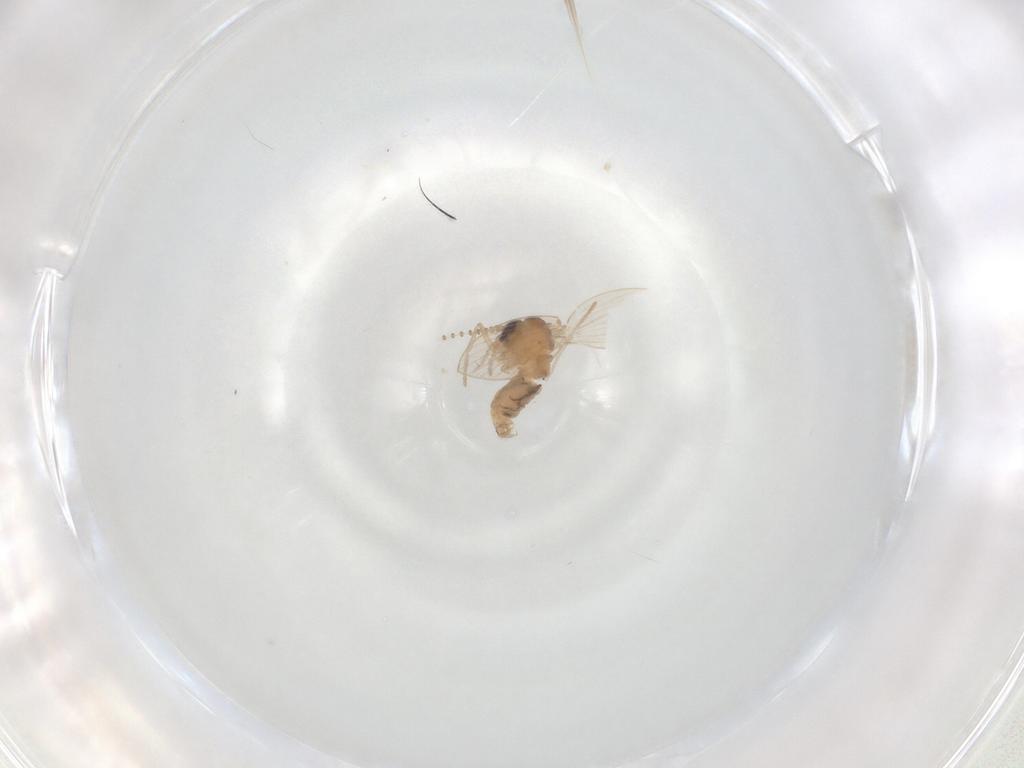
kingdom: Animalia
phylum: Arthropoda
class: Insecta
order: Diptera
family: Psychodidae
